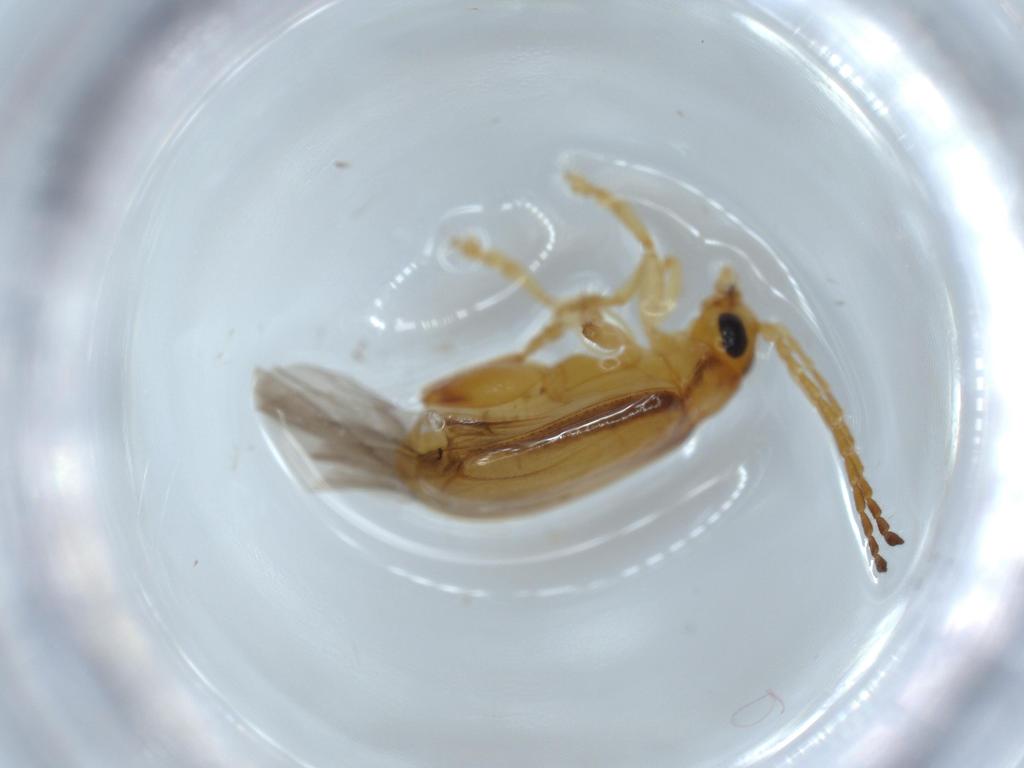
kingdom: Animalia
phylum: Arthropoda
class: Insecta
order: Coleoptera
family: Chrysomelidae
